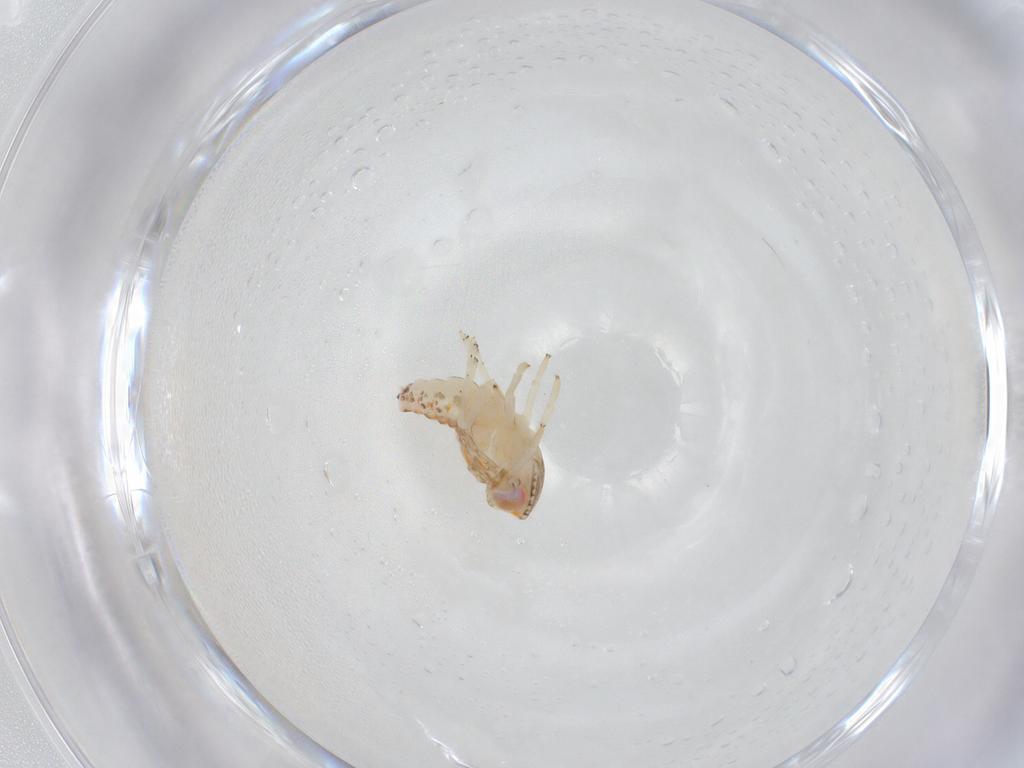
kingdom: Animalia
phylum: Arthropoda
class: Insecta
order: Hemiptera
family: Nogodinidae
